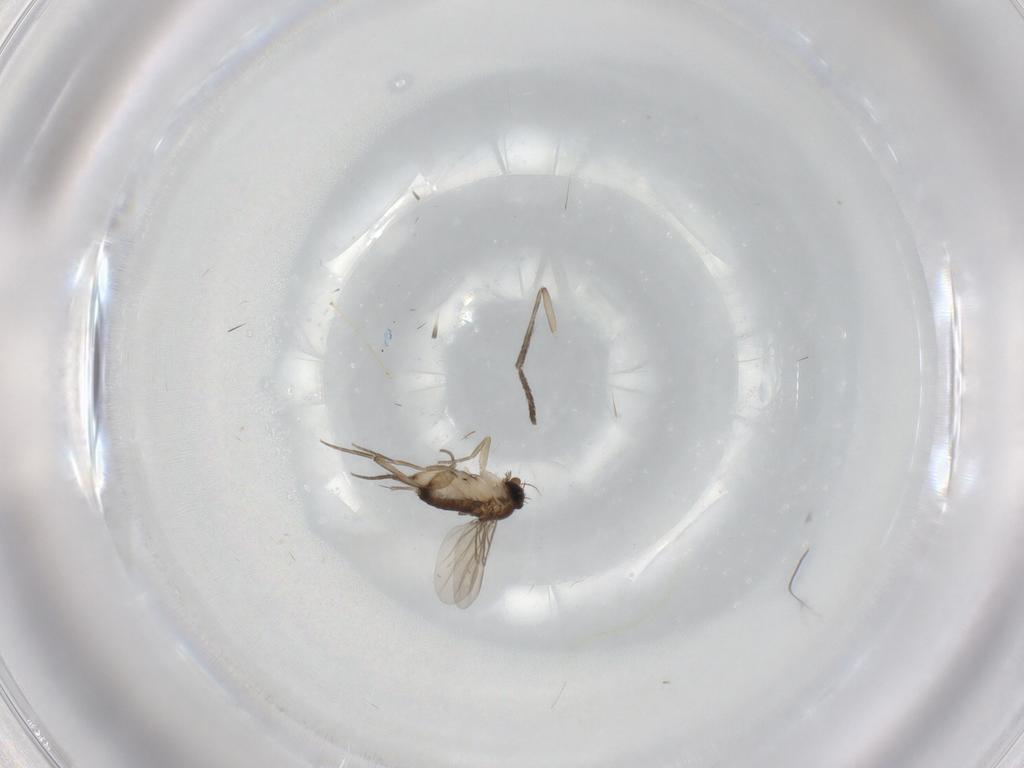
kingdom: Animalia
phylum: Arthropoda
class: Insecta
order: Diptera
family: Phoridae
